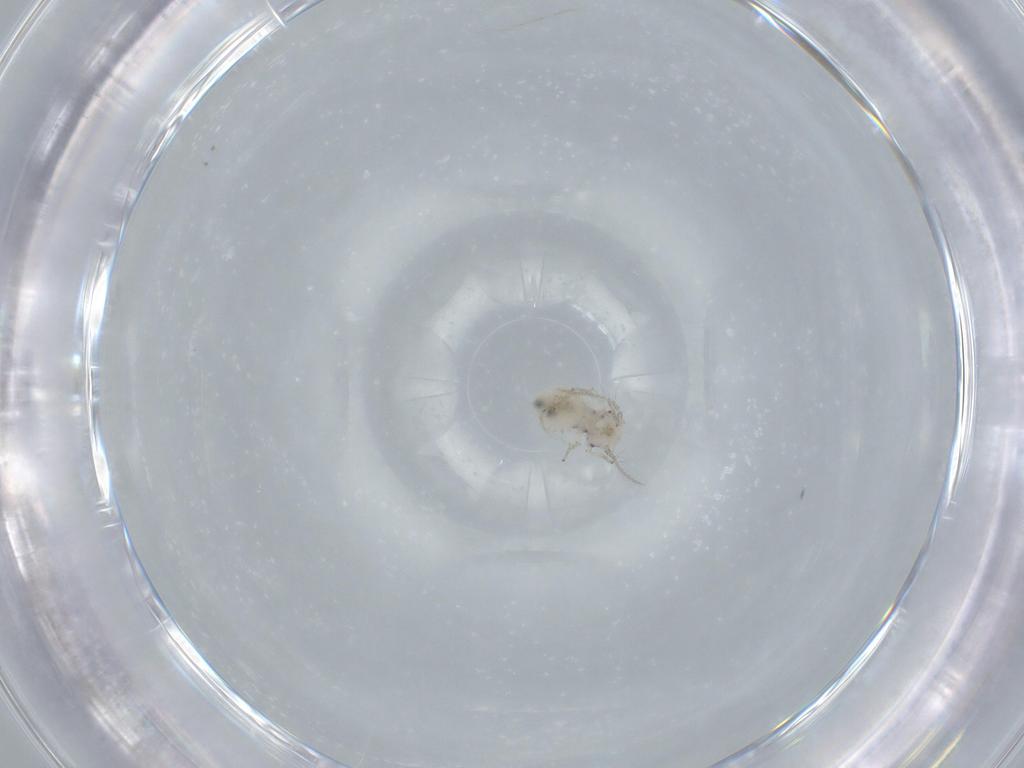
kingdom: Animalia
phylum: Arthropoda
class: Insecta
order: Psocodea
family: Pseudocaeciliidae
